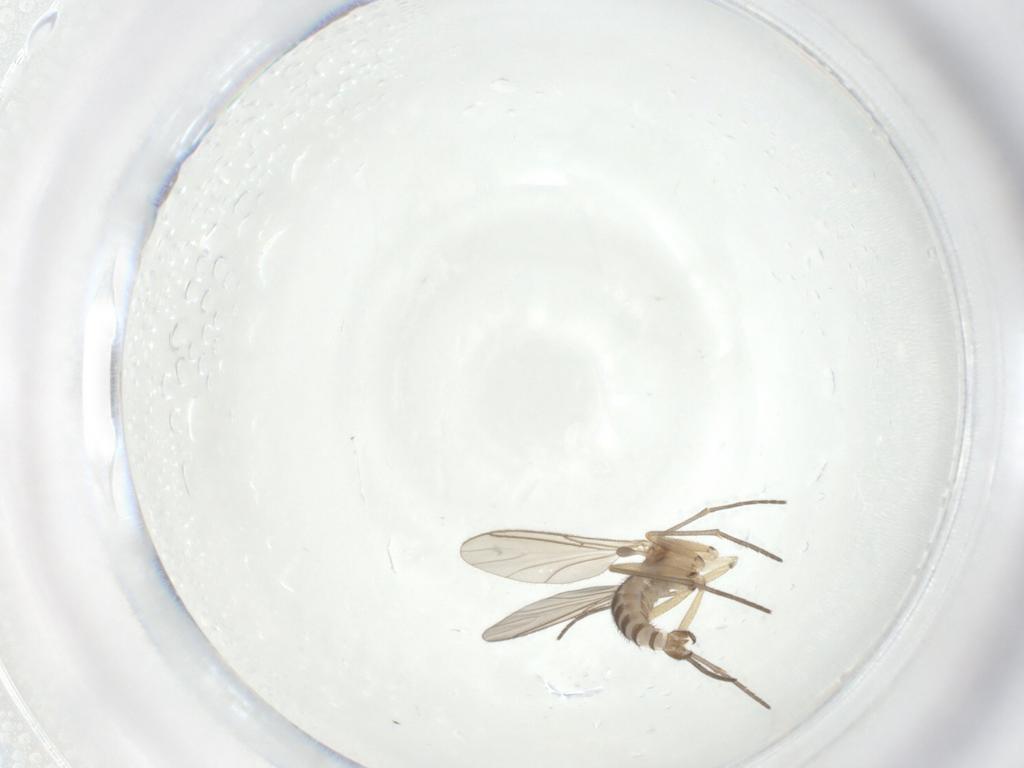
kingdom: Animalia
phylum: Arthropoda
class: Insecta
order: Diptera
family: Cecidomyiidae
